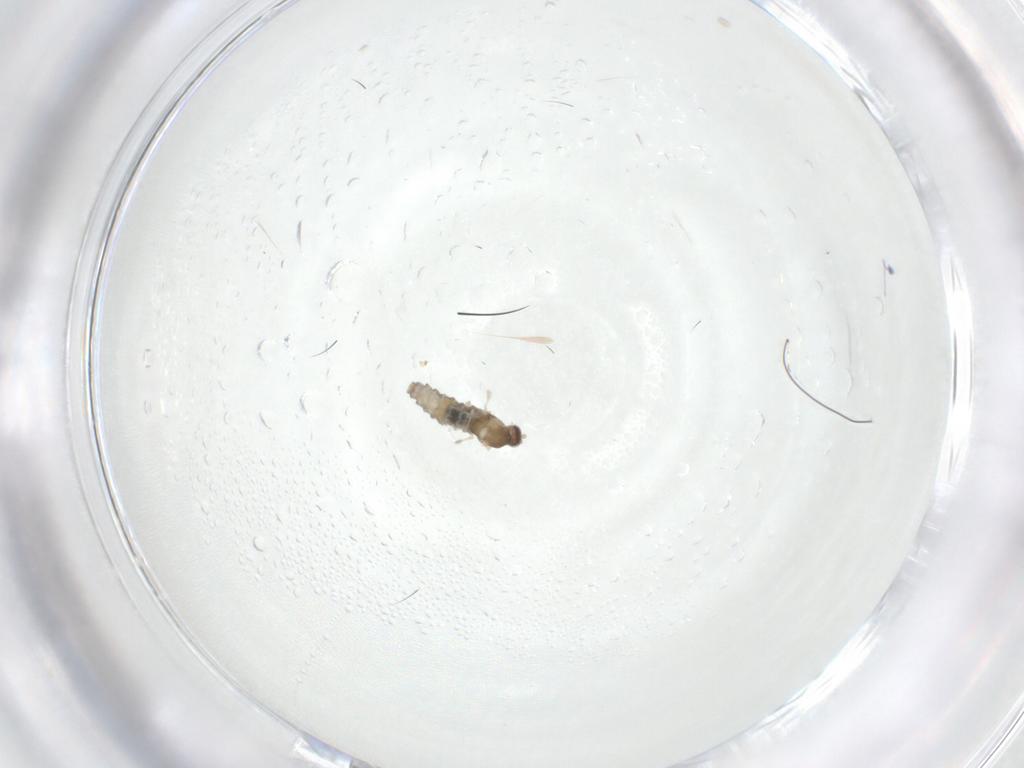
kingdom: Animalia
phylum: Arthropoda
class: Insecta
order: Diptera
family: Cecidomyiidae
